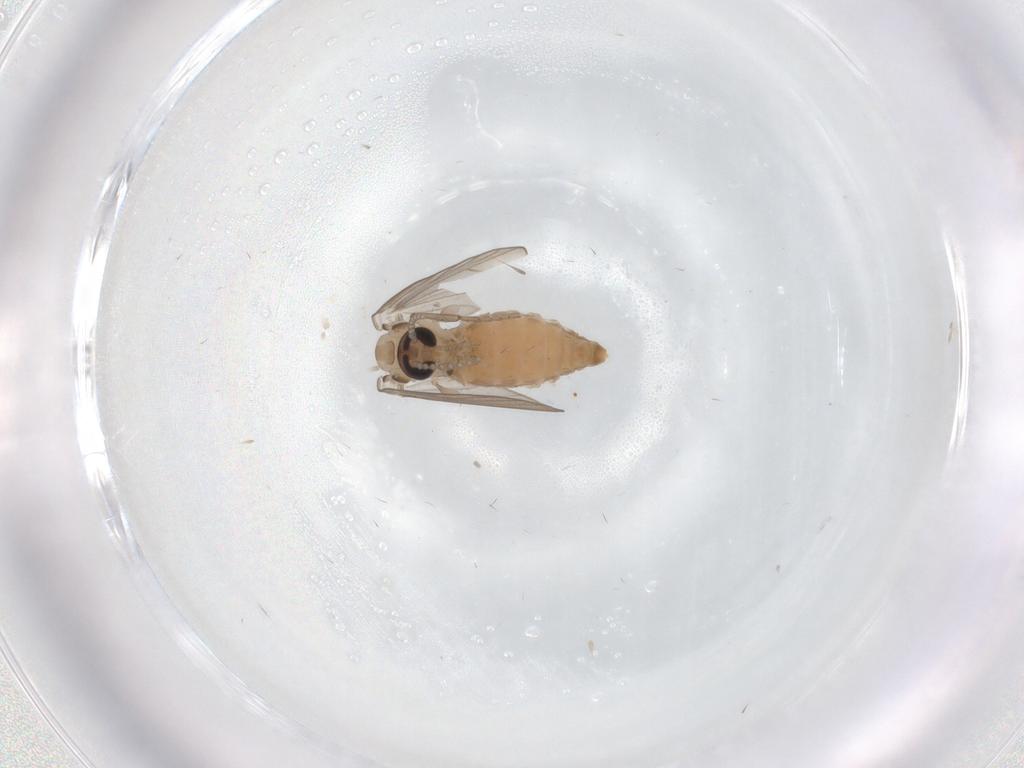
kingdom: Animalia
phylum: Arthropoda
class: Insecta
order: Diptera
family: Psychodidae
